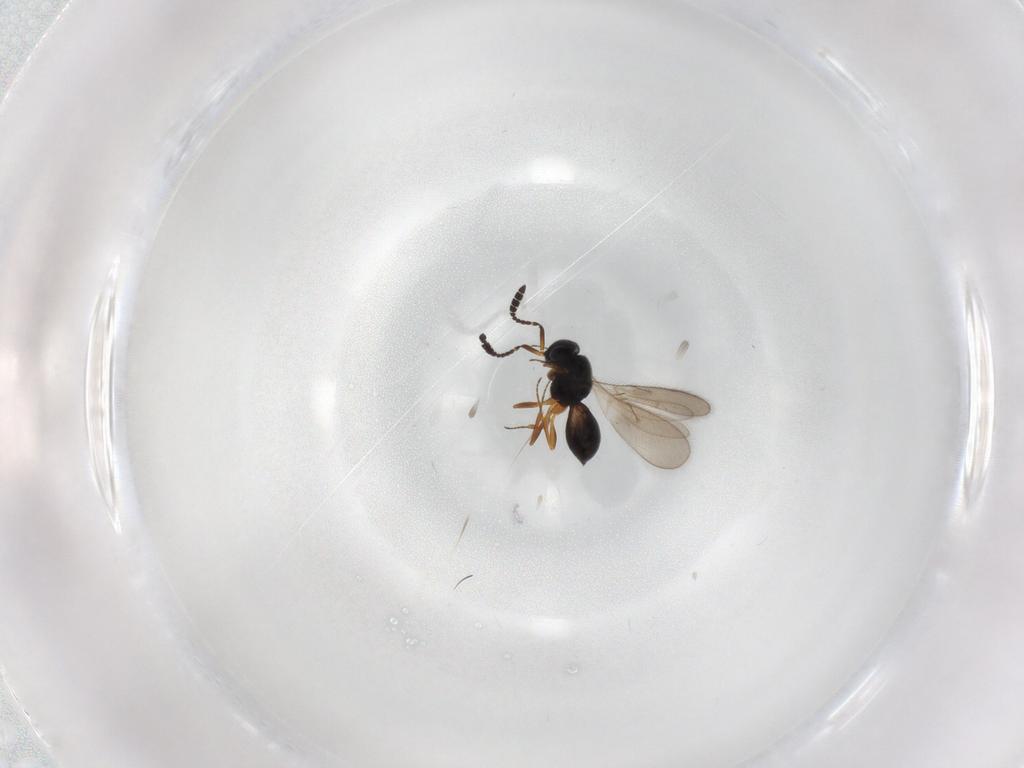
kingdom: Animalia
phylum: Arthropoda
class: Insecta
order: Hymenoptera
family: Scelionidae
